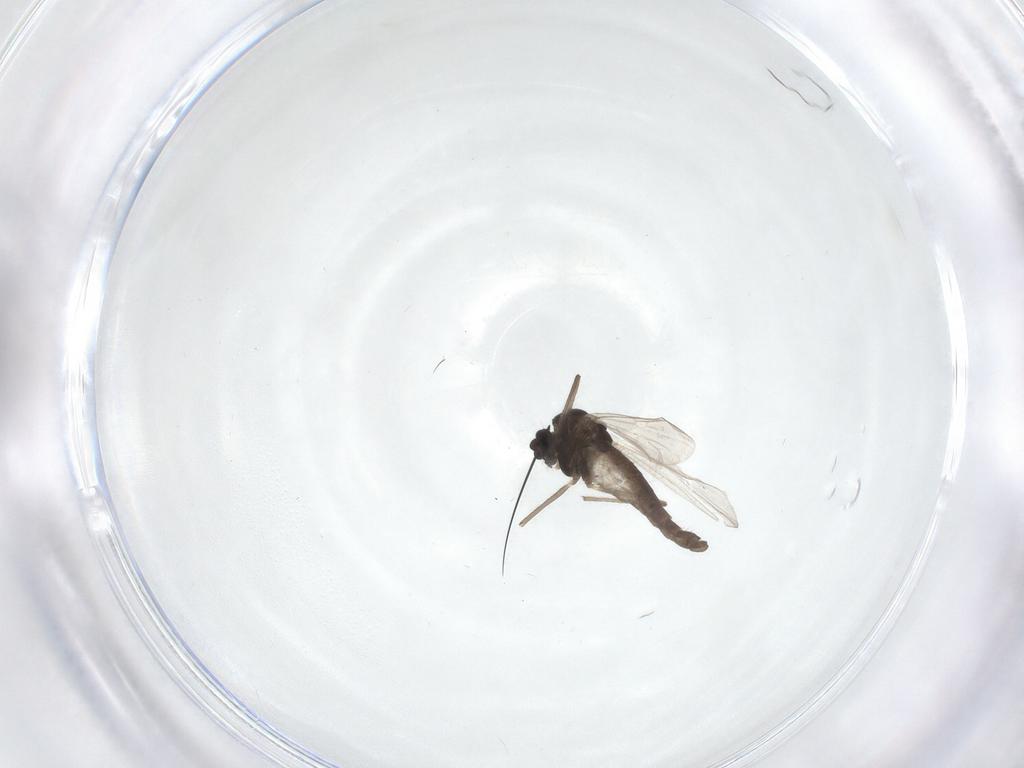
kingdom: Animalia
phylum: Arthropoda
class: Insecta
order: Diptera
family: Chironomidae
